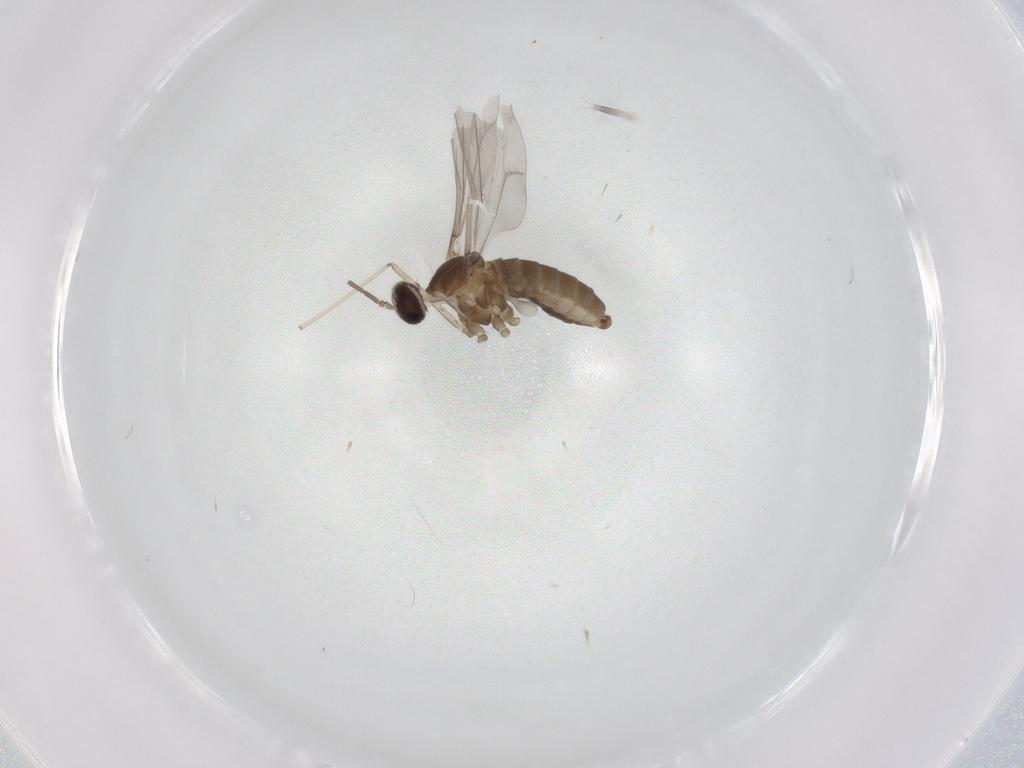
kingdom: Animalia
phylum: Arthropoda
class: Insecta
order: Diptera
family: Cecidomyiidae
